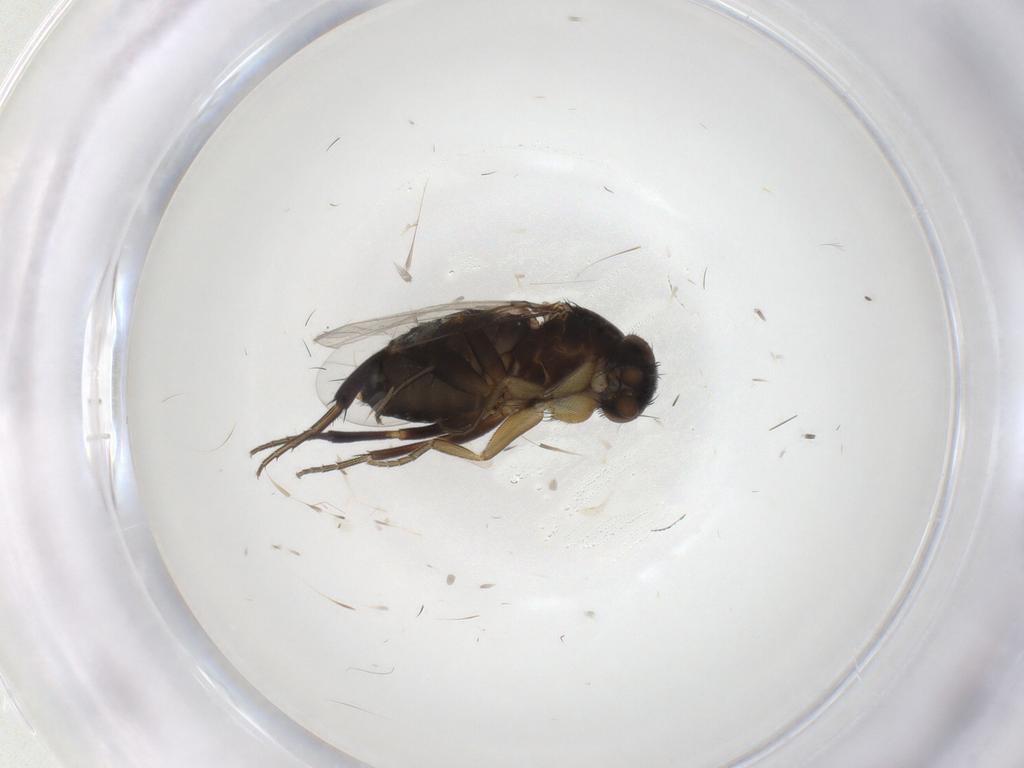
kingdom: Animalia
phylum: Arthropoda
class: Insecta
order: Diptera
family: Phoridae
